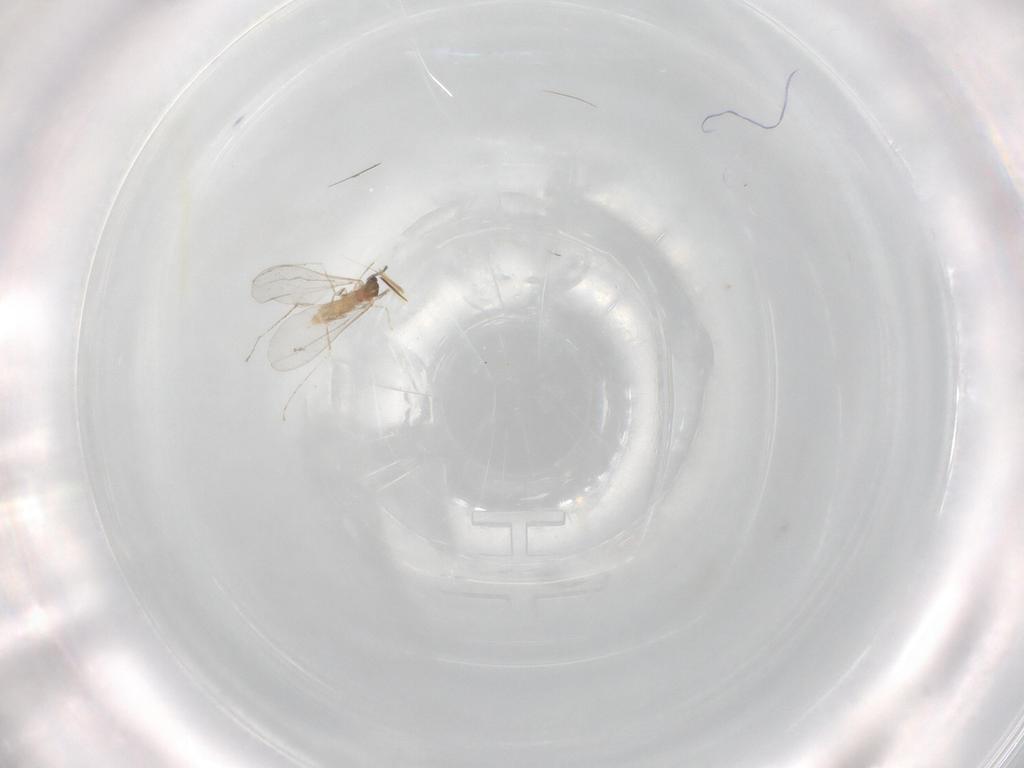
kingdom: Animalia
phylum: Arthropoda
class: Insecta
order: Diptera
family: Cecidomyiidae
